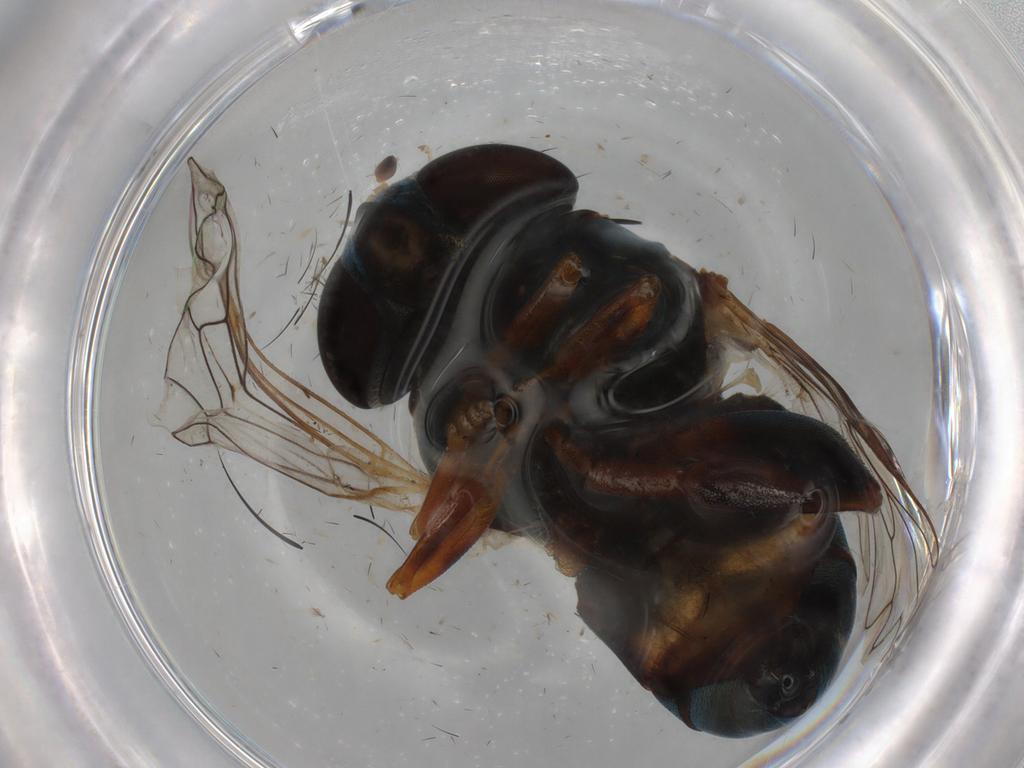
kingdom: Animalia
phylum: Arthropoda
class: Insecta
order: Diptera
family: Syrphidae
